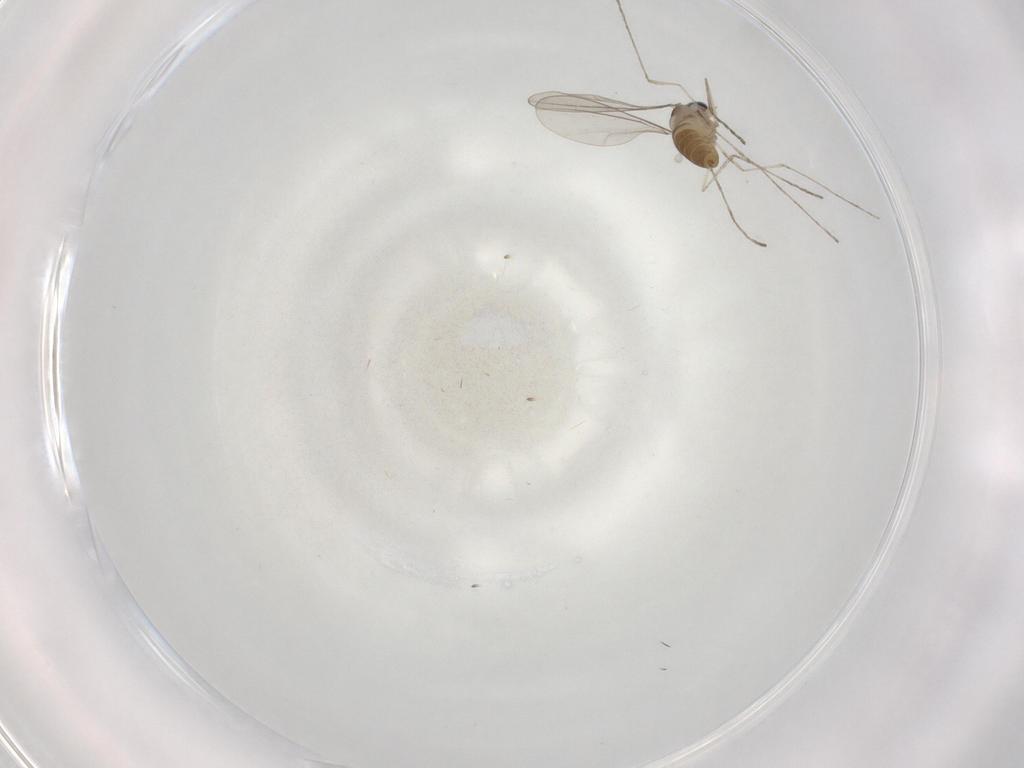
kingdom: Animalia
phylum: Arthropoda
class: Insecta
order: Diptera
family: Cecidomyiidae
